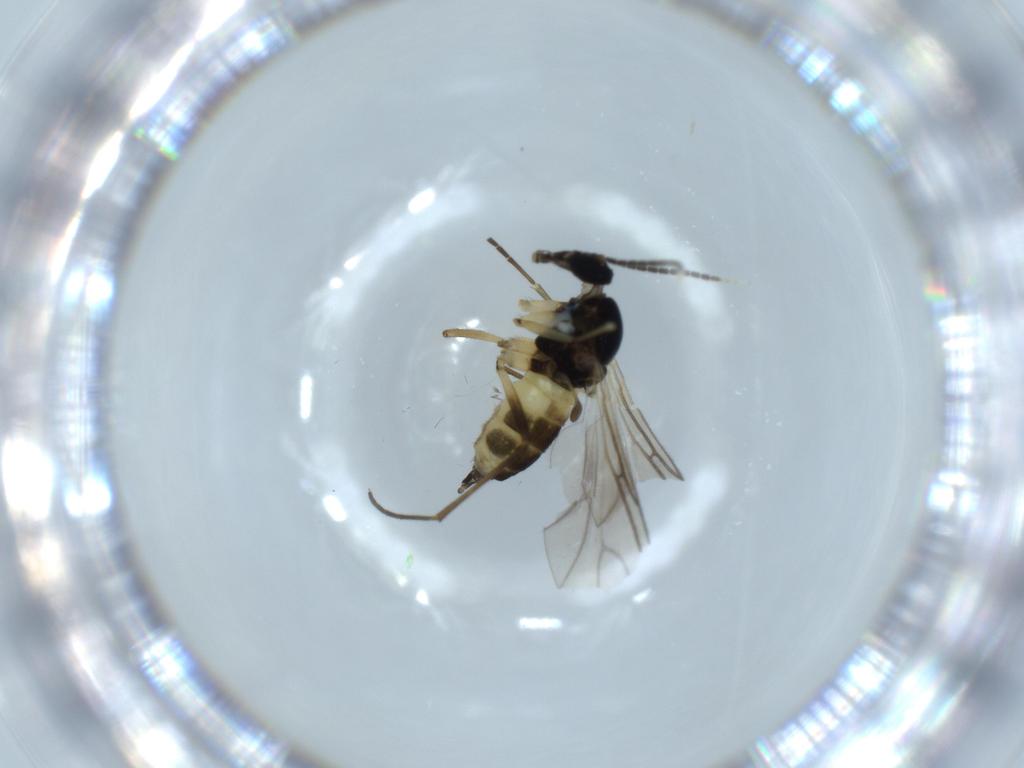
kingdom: Animalia
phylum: Arthropoda
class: Insecta
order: Diptera
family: Sciaridae
